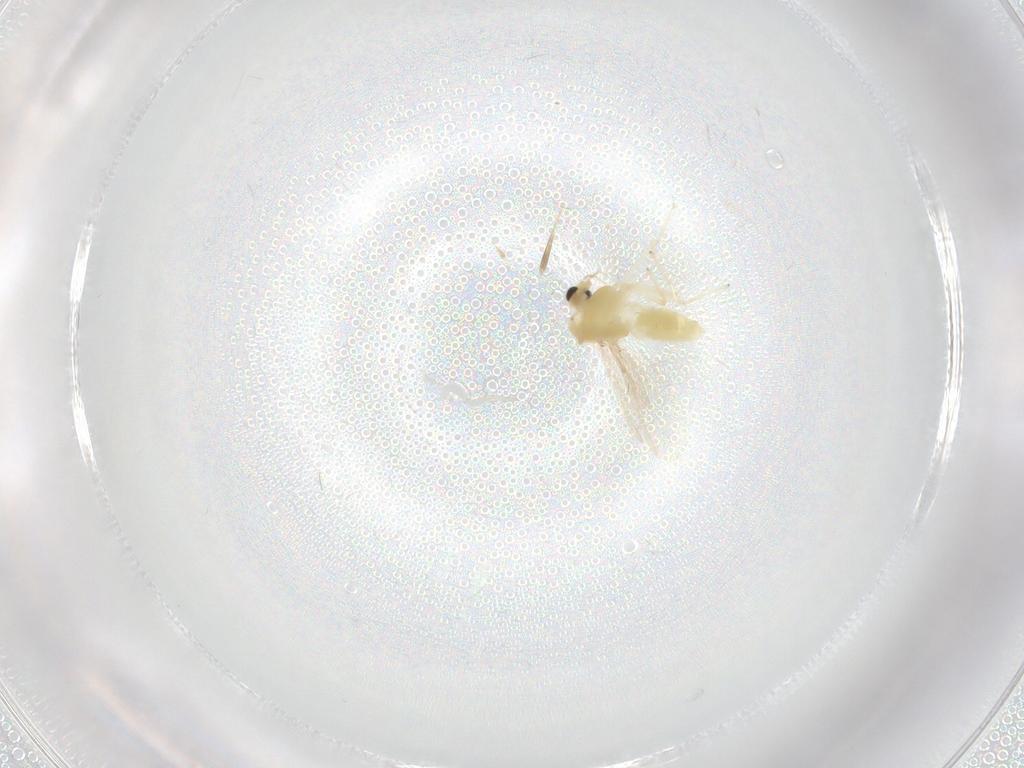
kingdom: Animalia
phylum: Arthropoda
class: Insecta
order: Diptera
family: Chironomidae
